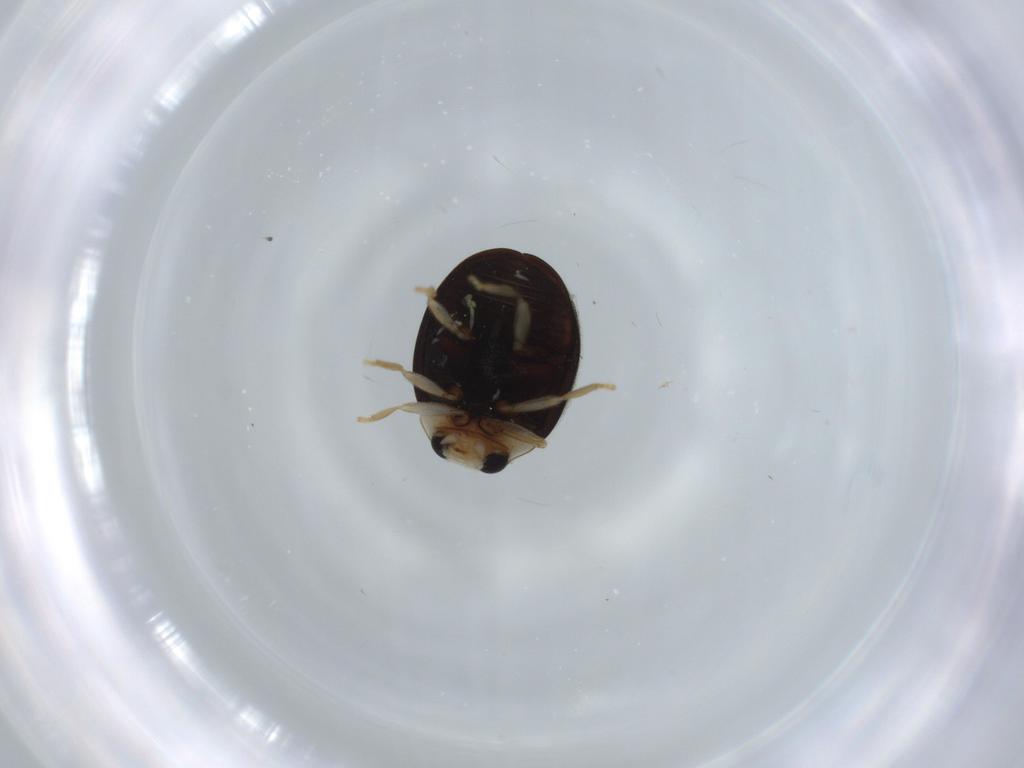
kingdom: Animalia
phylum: Arthropoda
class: Insecta
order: Coleoptera
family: Coccinellidae
